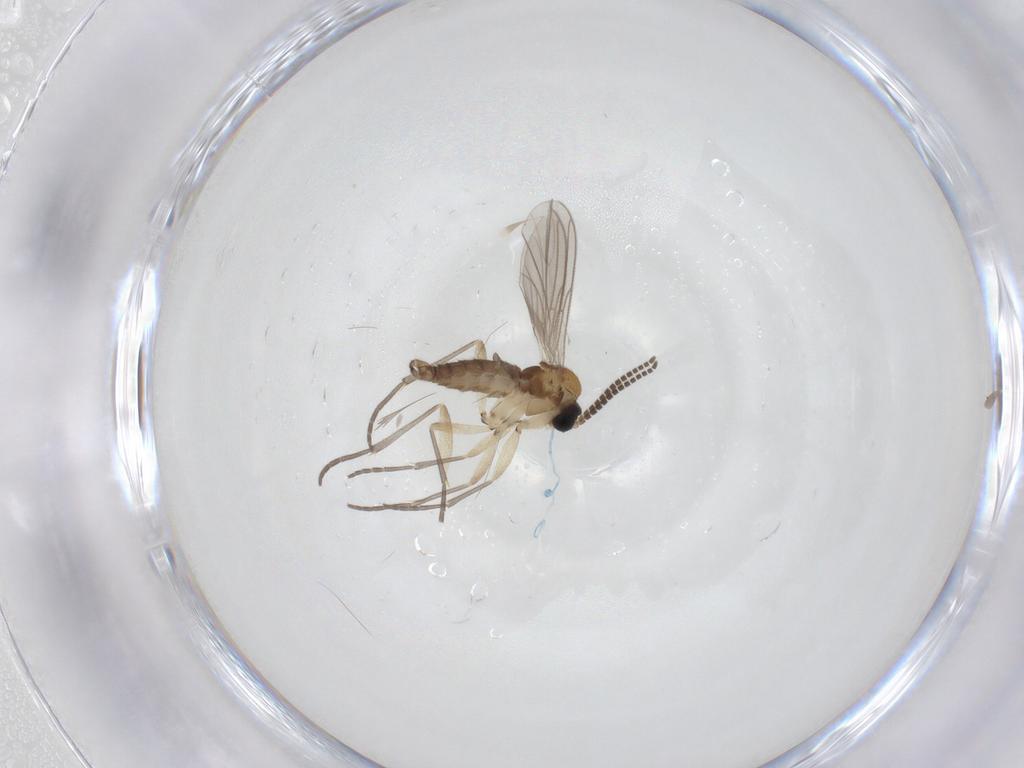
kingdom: Animalia
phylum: Arthropoda
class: Insecta
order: Diptera
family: Sciaridae
